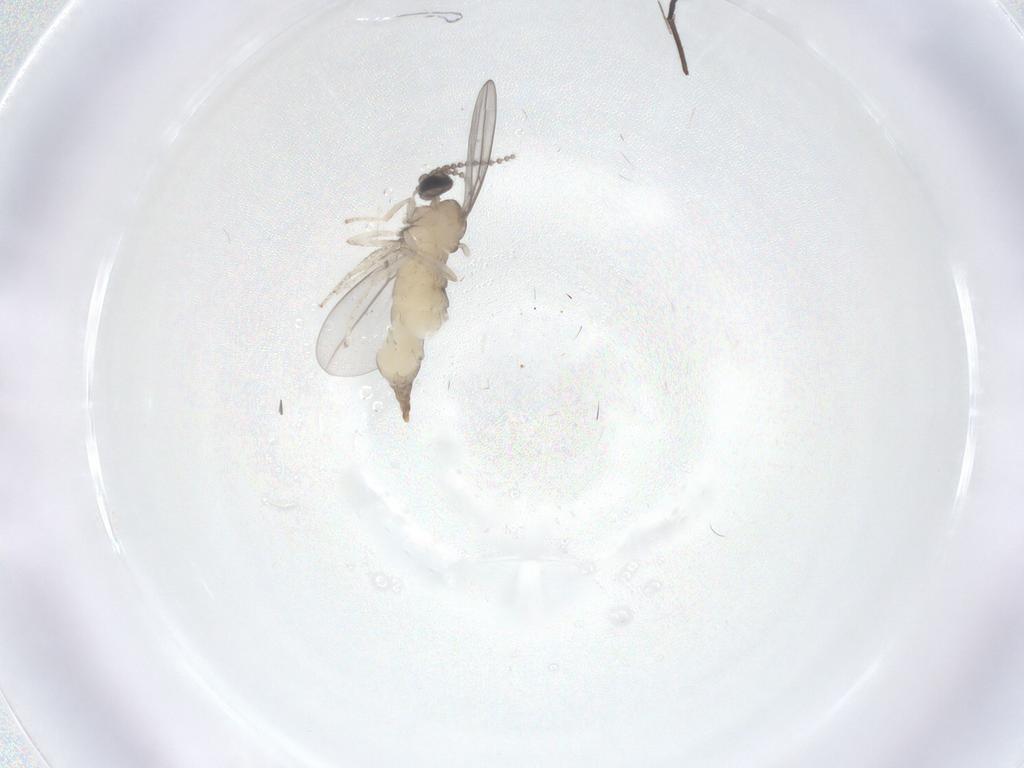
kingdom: Animalia
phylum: Arthropoda
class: Insecta
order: Diptera
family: Cecidomyiidae
